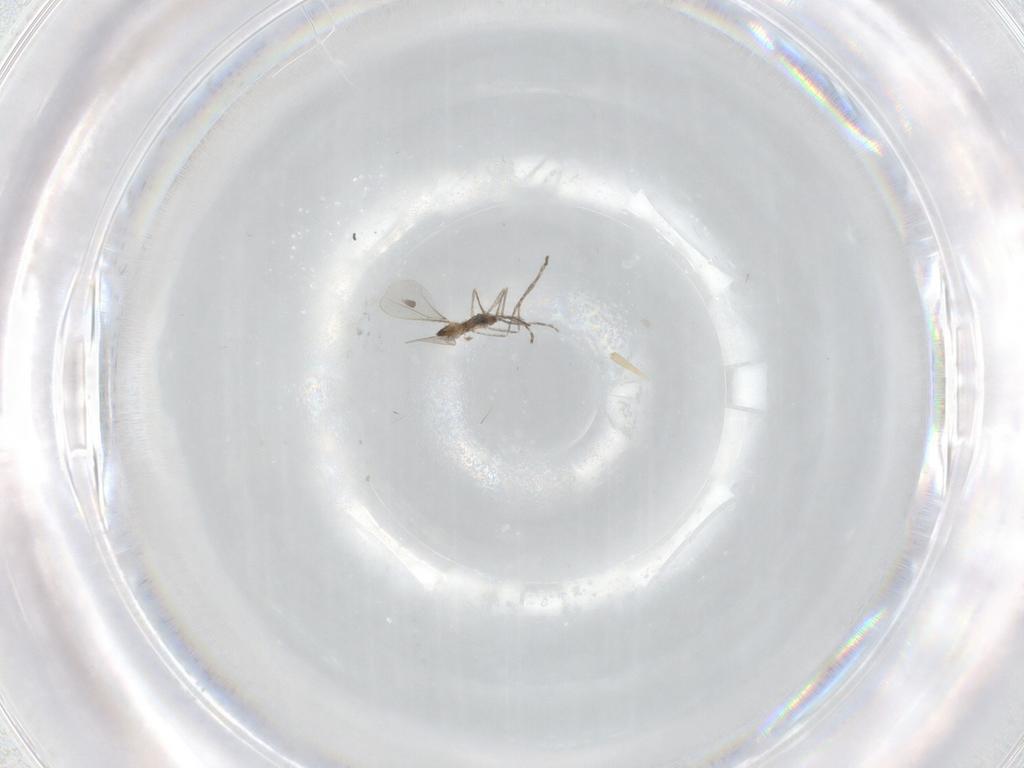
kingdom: Animalia
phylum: Arthropoda
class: Insecta
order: Diptera
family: Cecidomyiidae
